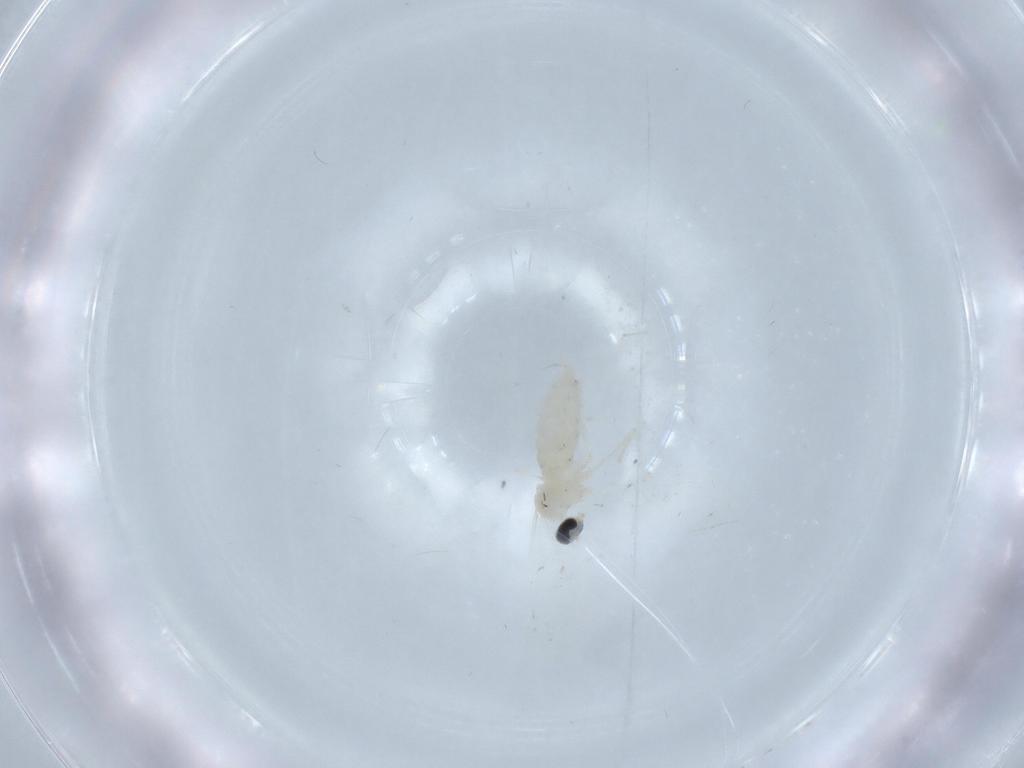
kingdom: Animalia
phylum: Arthropoda
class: Insecta
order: Diptera
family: Cecidomyiidae
